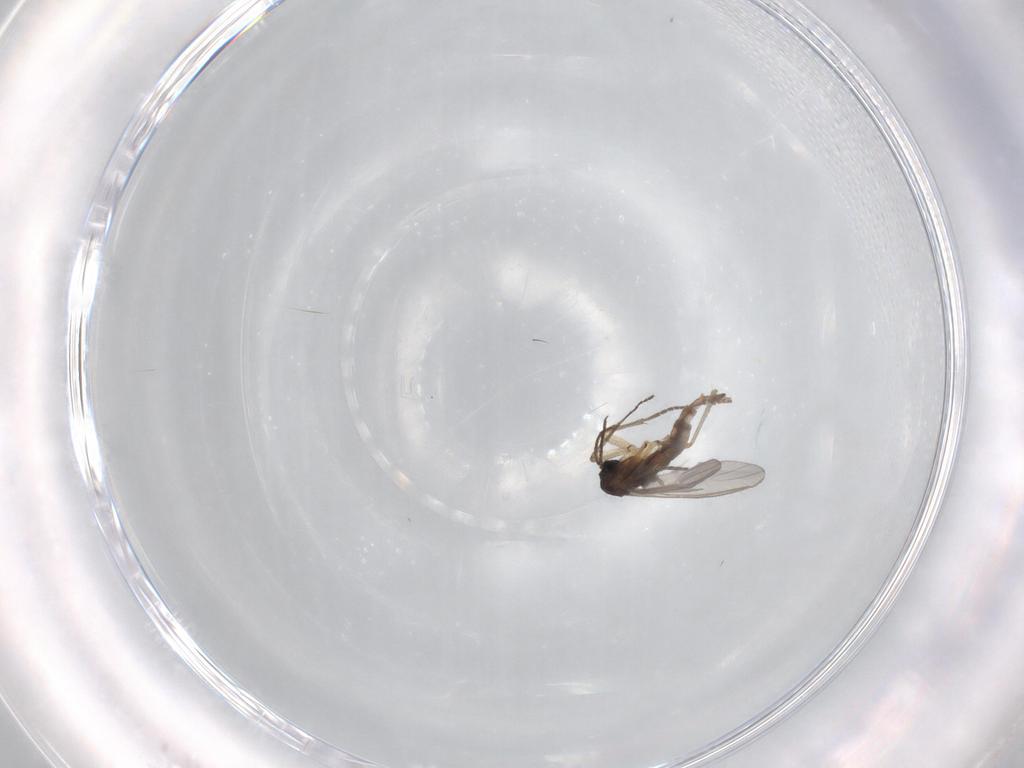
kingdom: Animalia
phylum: Arthropoda
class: Insecta
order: Diptera
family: Sciaridae
